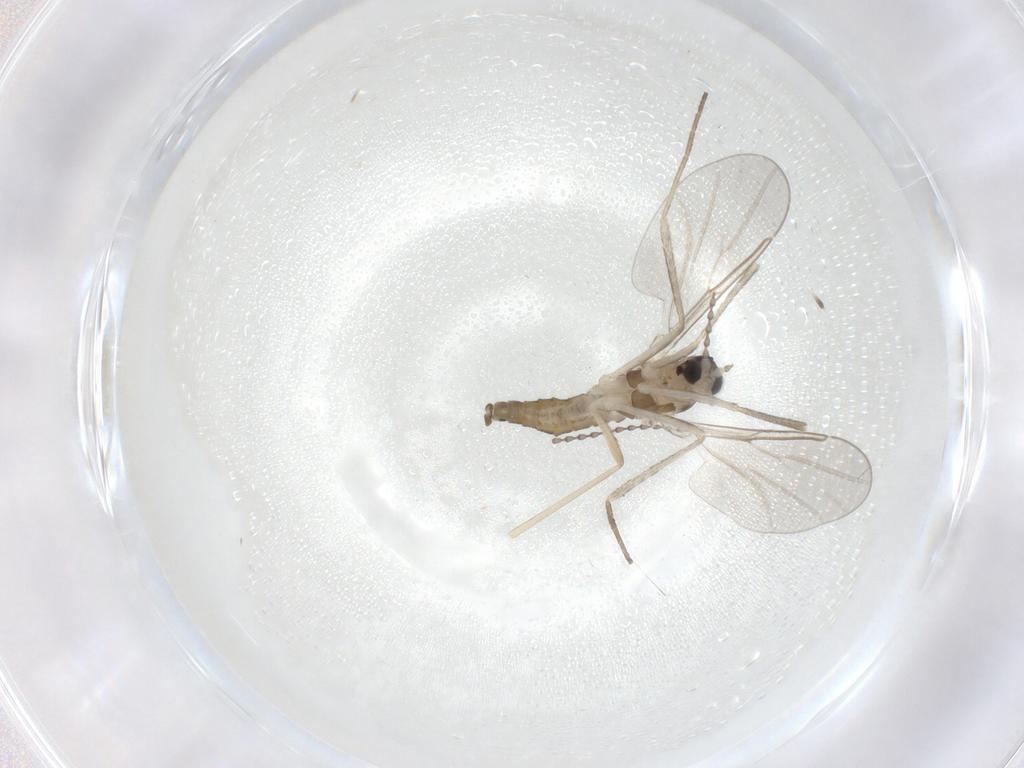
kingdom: Animalia
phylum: Arthropoda
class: Insecta
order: Diptera
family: Cecidomyiidae
